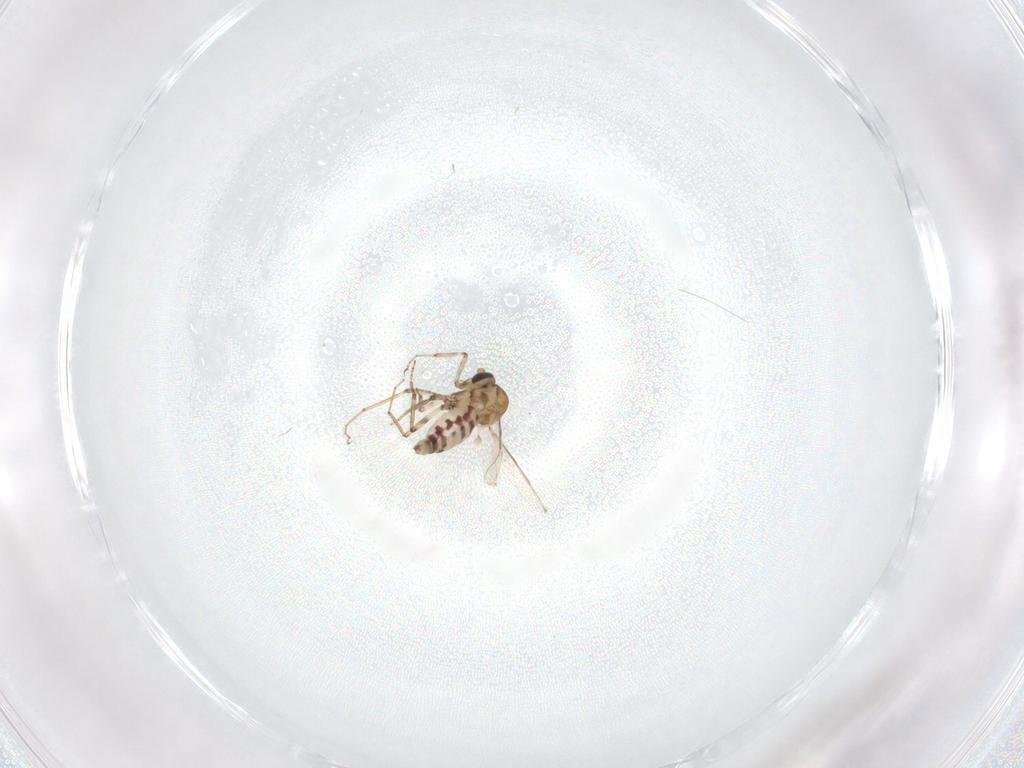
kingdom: Animalia
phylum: Arthropoda
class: Insecta
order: Diptera
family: Ceratopogonidae
